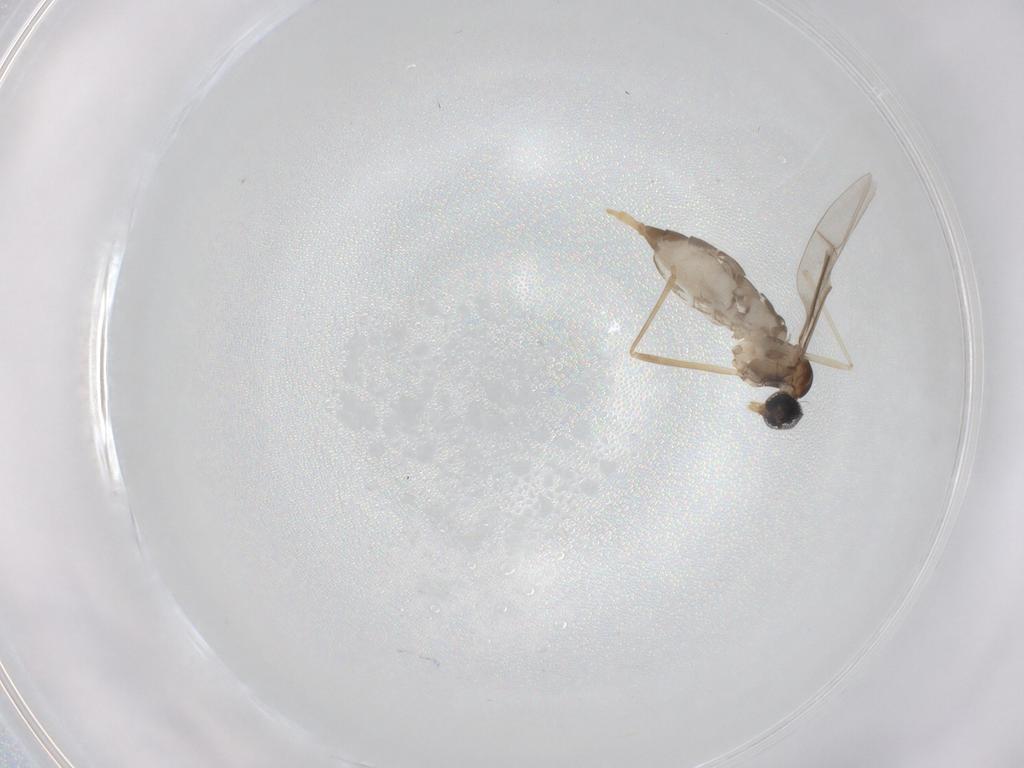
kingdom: Animalia
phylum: Arthropoda
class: Insecta
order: Diptera
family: Cecidomyiidae
